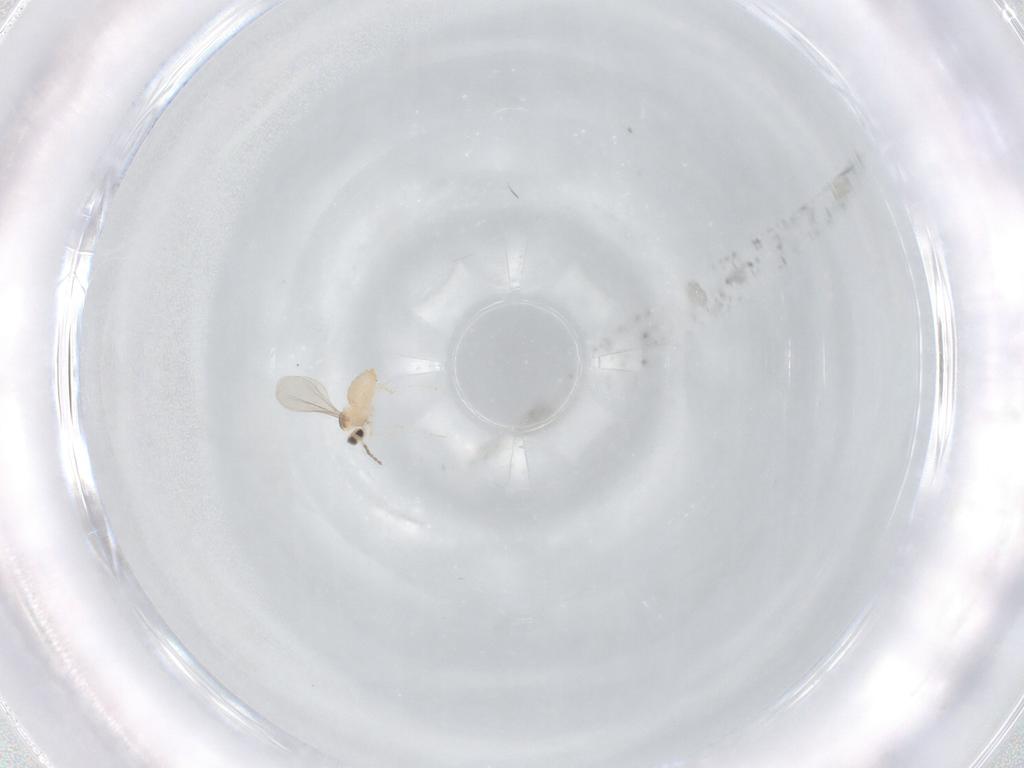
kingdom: Animalia
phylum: Arthropoda
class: Insecta
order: Diptera
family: Cecidomyiidae
